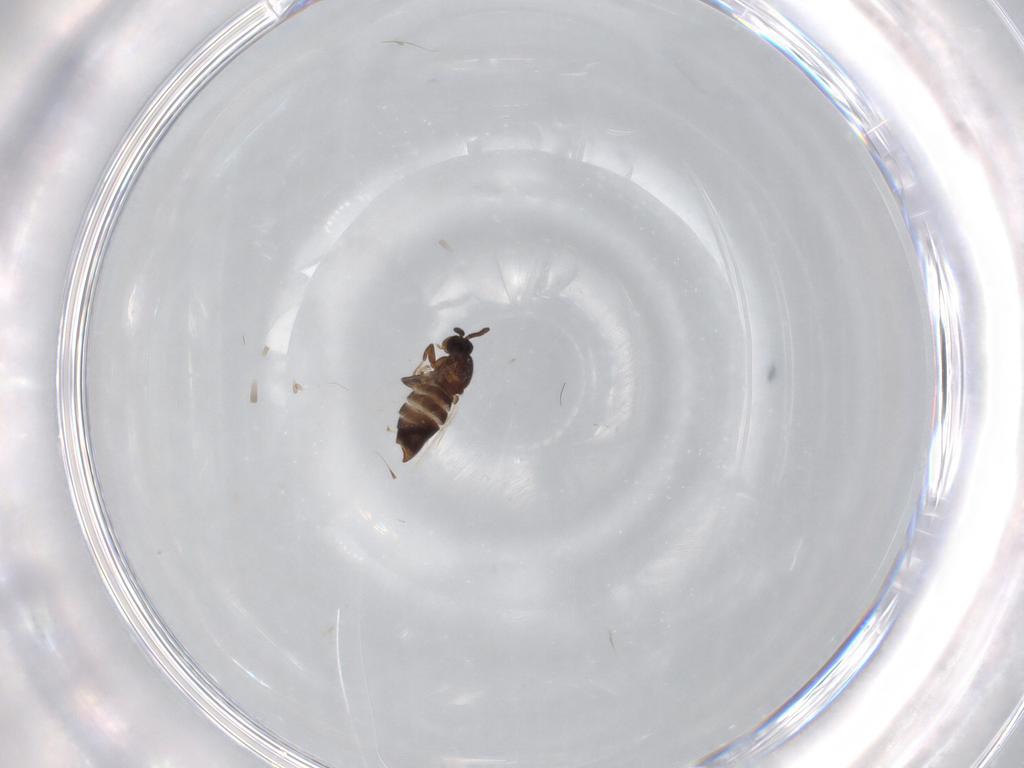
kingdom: Animalia
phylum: Arthropoda
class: Insecta
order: Diptera
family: Scatopsidae
